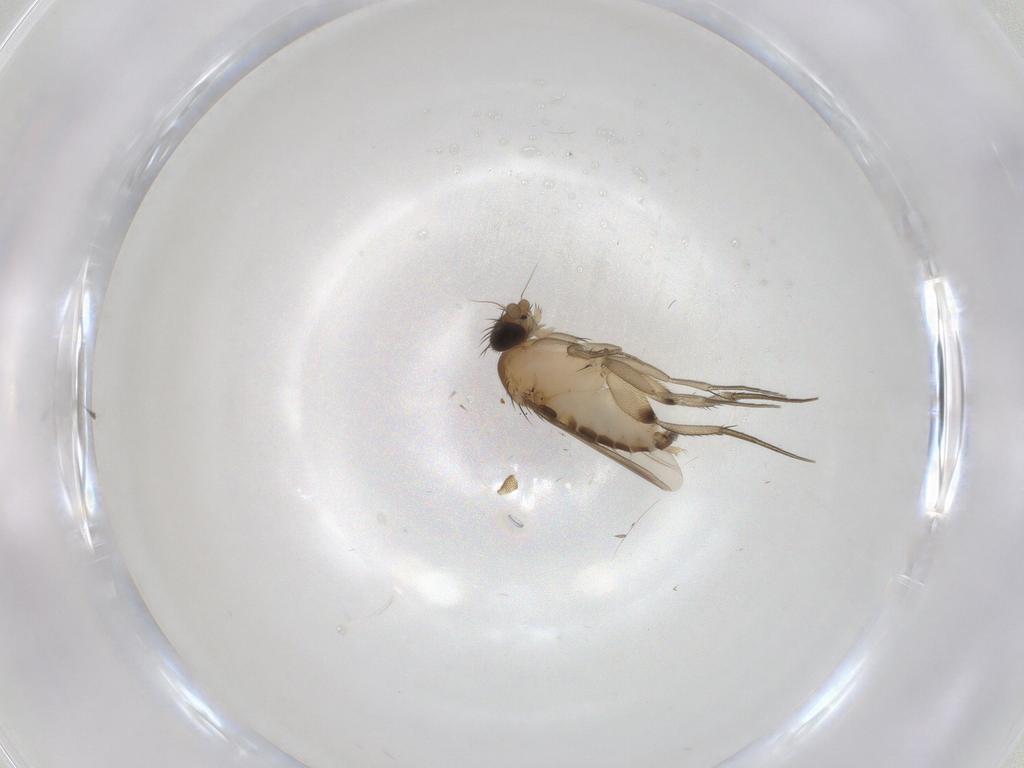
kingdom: Animalia
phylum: Arthropoda
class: Insecta
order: Diptera
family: Phoridae
